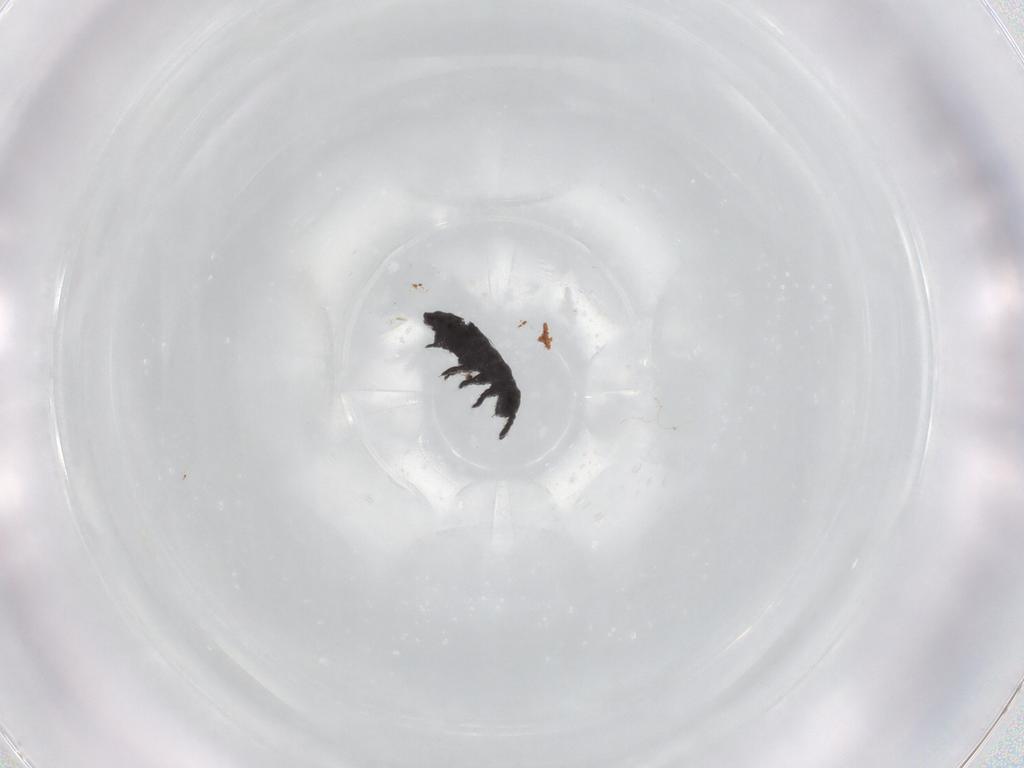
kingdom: Animalia
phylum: Arthropoda
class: Collembola
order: Poduromorpha
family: Hypogastruridae
